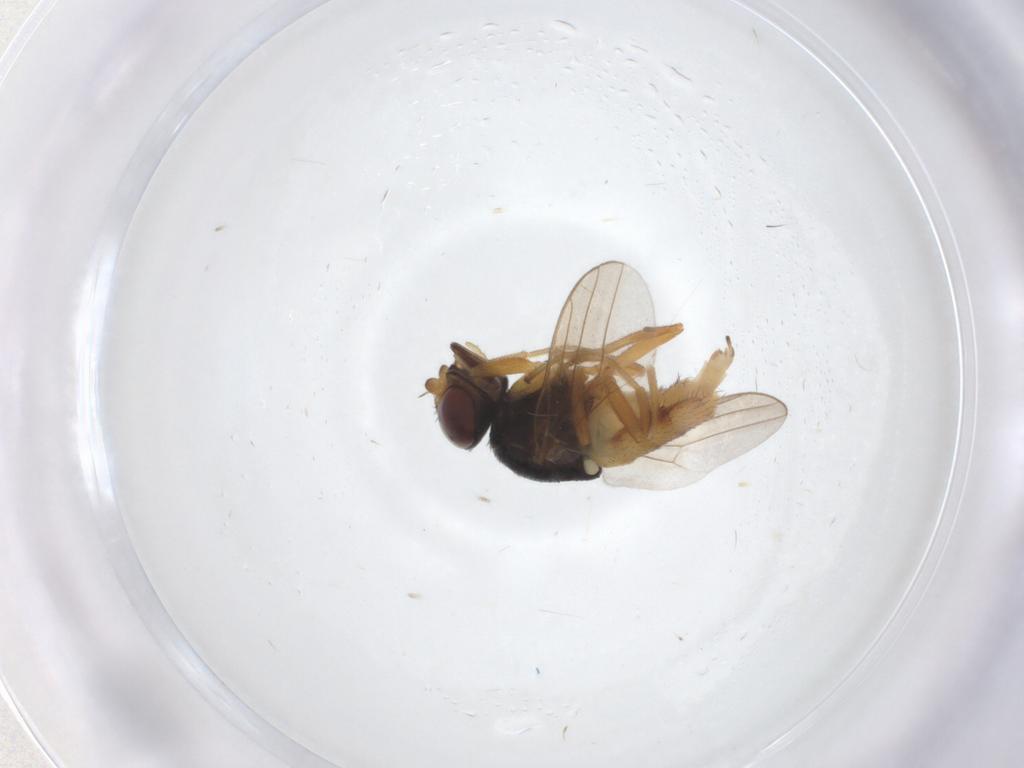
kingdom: Animalia
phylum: Arthropoda
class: Insecta
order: Diptera
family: Chloropidae
